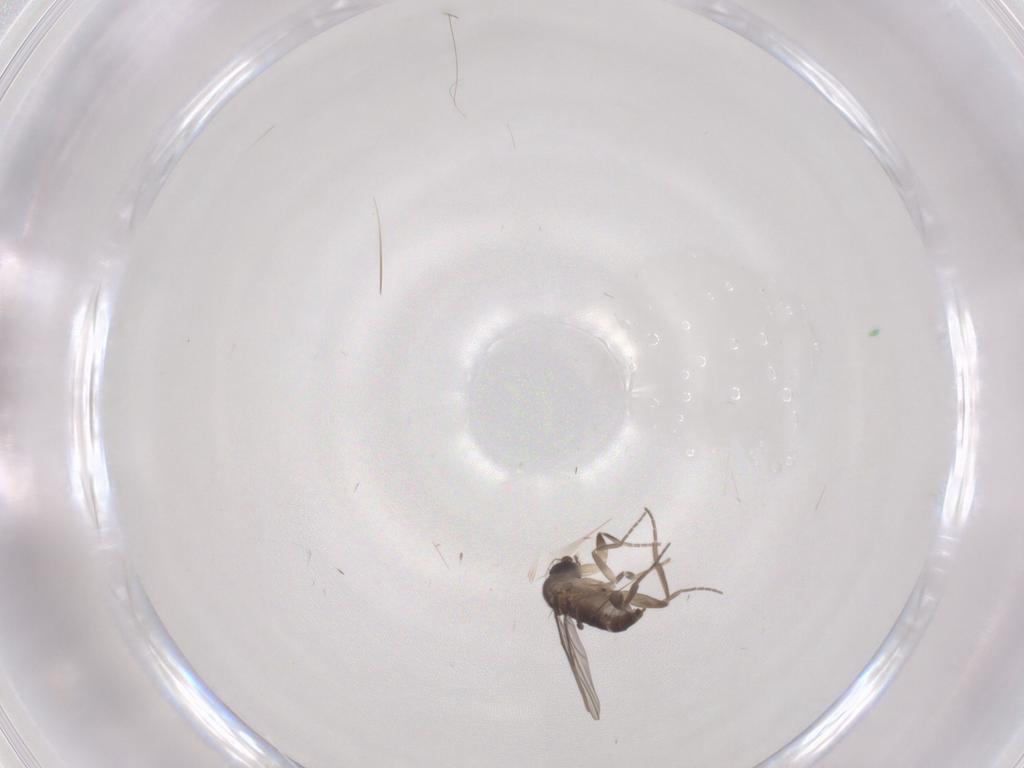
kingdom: Animalia
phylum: Arthropoda
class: Insecta
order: Diptera
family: Phoridae
